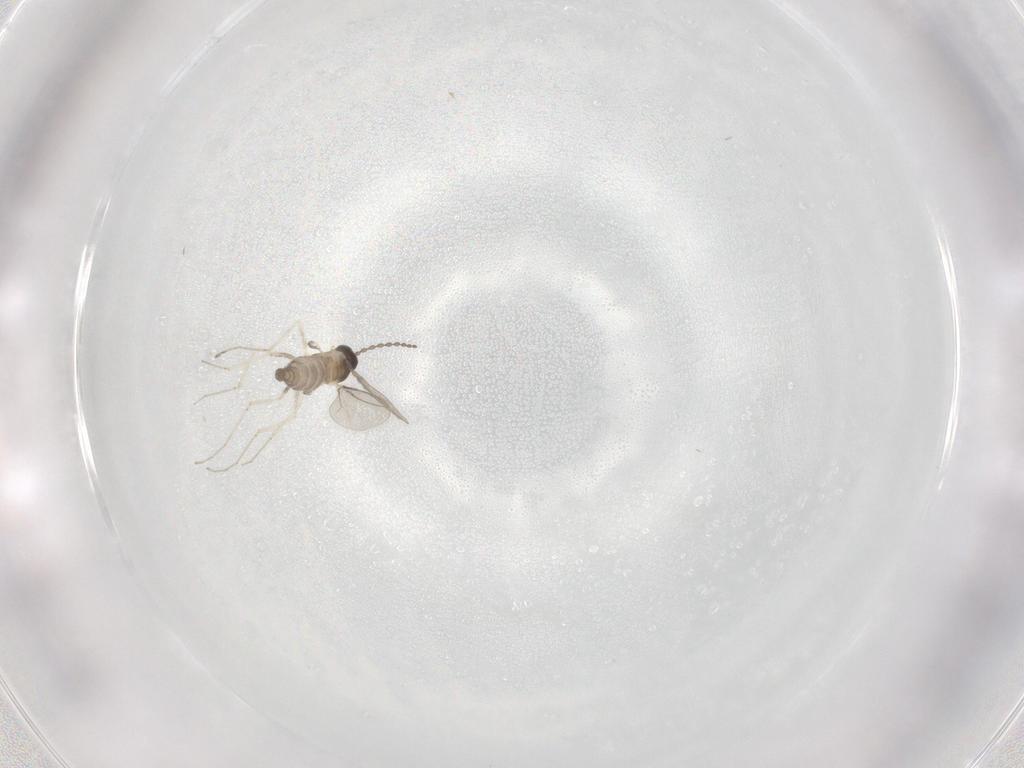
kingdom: Animalia
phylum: Arthropoda
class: Insecta
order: Diptera
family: Cecidomyiidae
